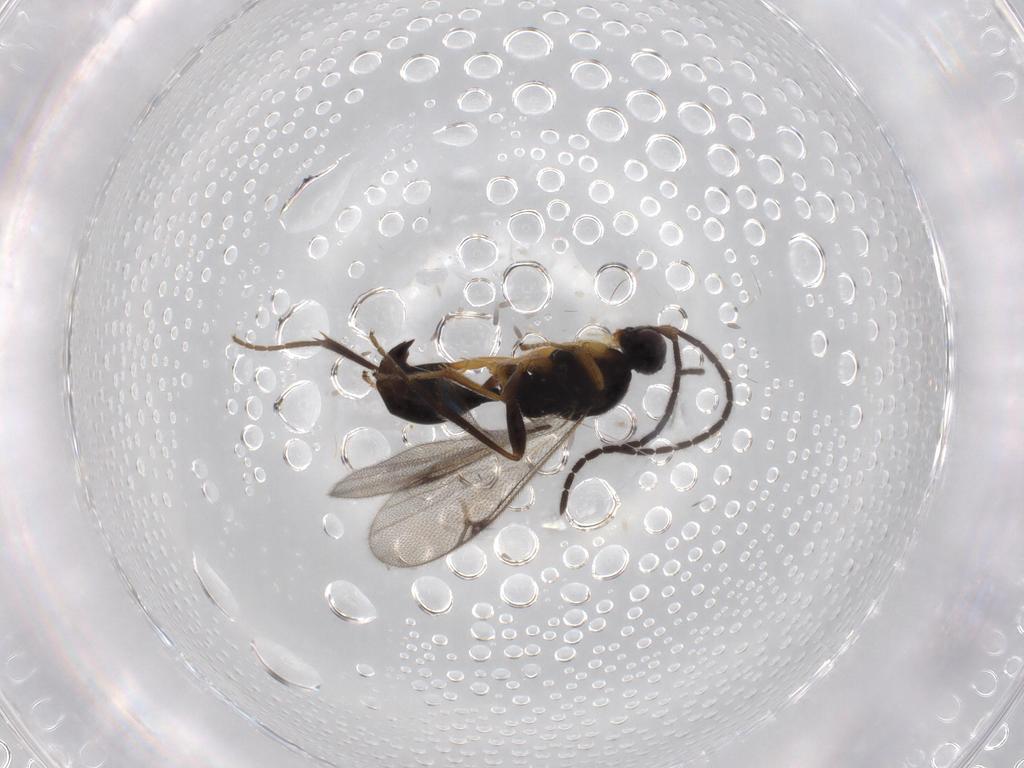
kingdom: Animalia
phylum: Arthropoda
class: Insecta
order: Hymenoptera
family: Proctotrupidae
